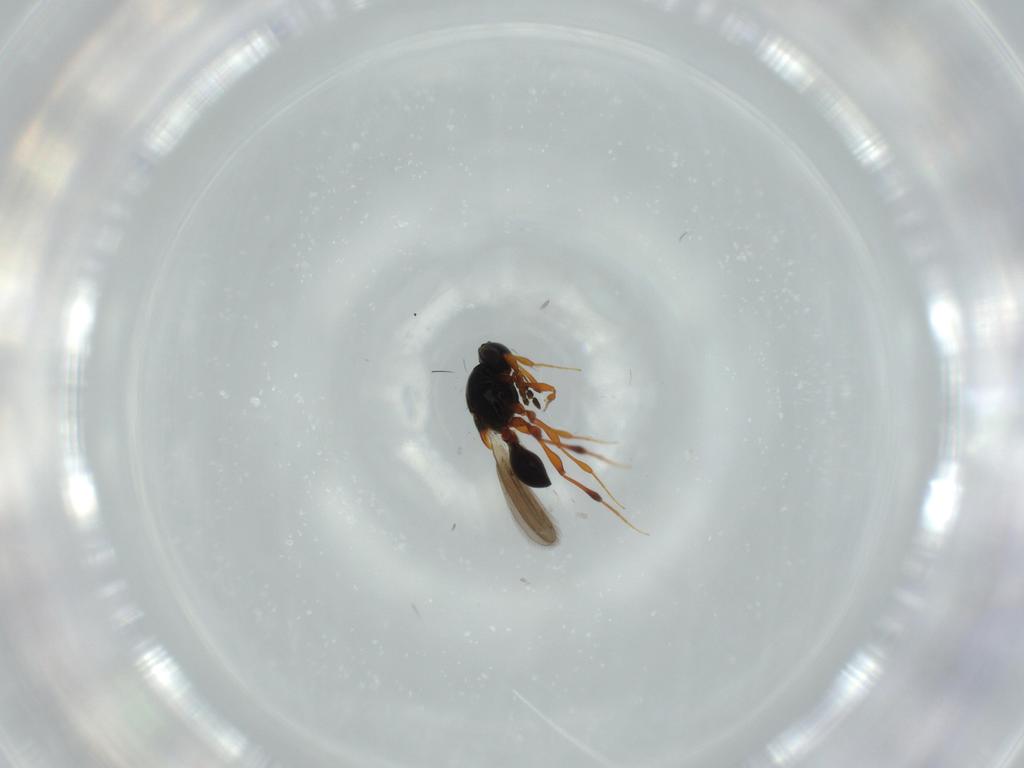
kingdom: Animalia
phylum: Arthropoda
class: Insecta
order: Hymenoptera
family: Platygastridae
